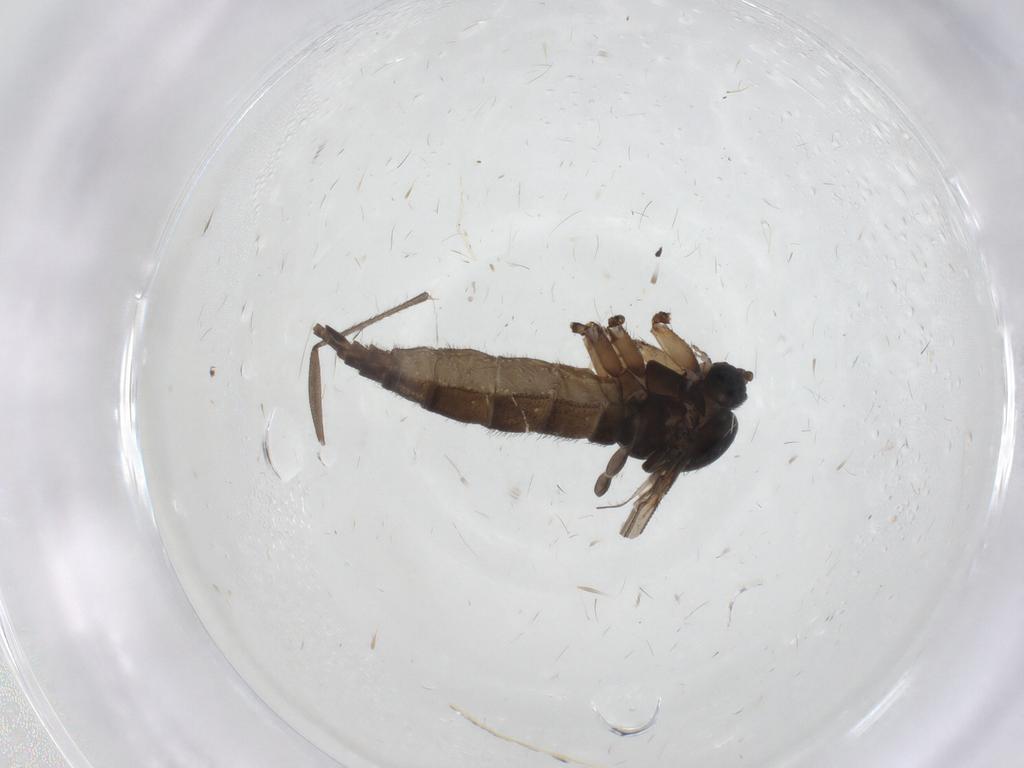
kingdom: Animalia
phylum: Arthropoda
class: Insecta
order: Diptera
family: Sciaridae
